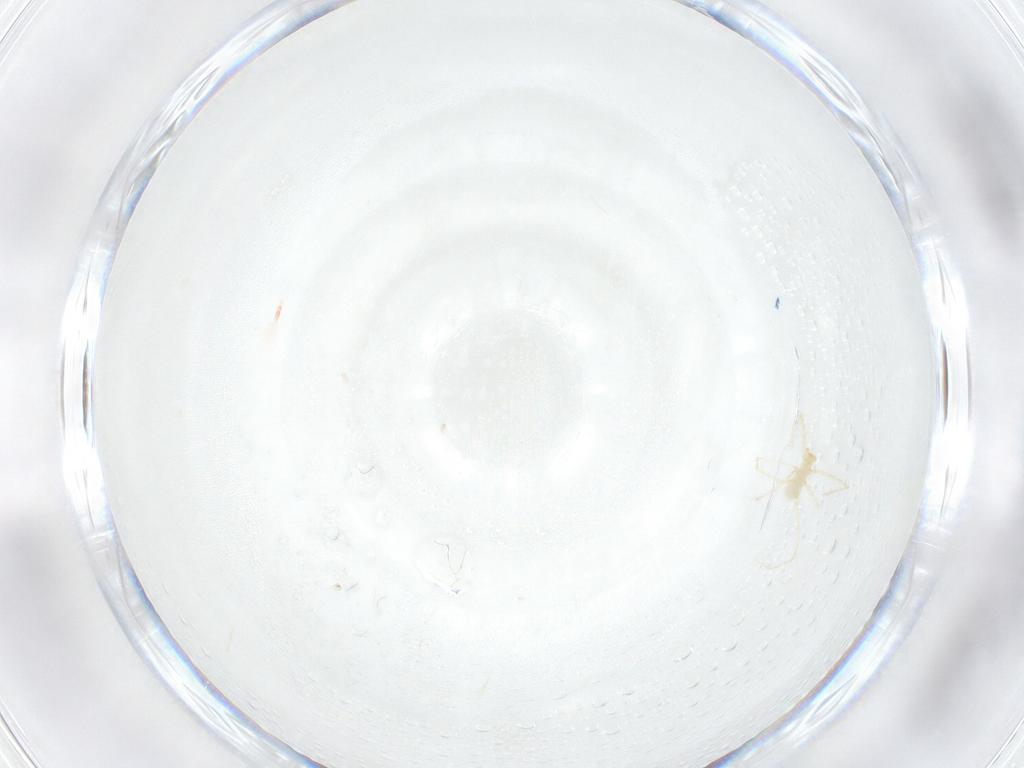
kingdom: Animalia
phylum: Arthropoda
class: Arachnida
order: Trombidiformes
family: Erythraeidae
